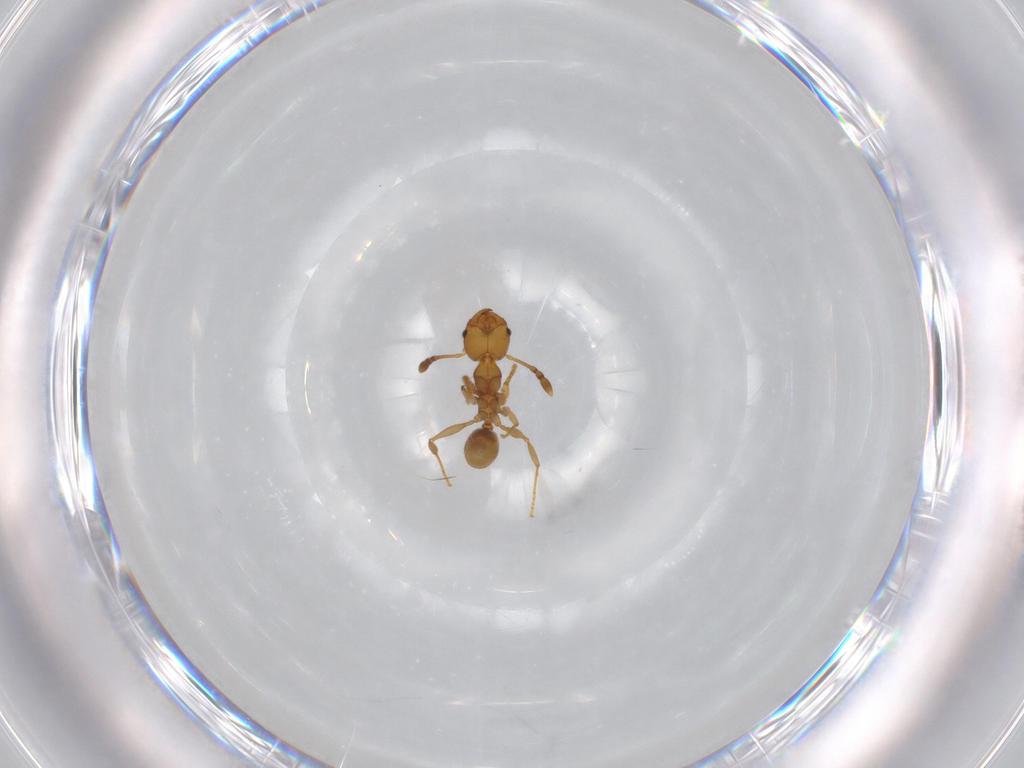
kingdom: Animalia
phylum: Arthropoda
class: Insecta
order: Hymenoptera
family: Formicidae
